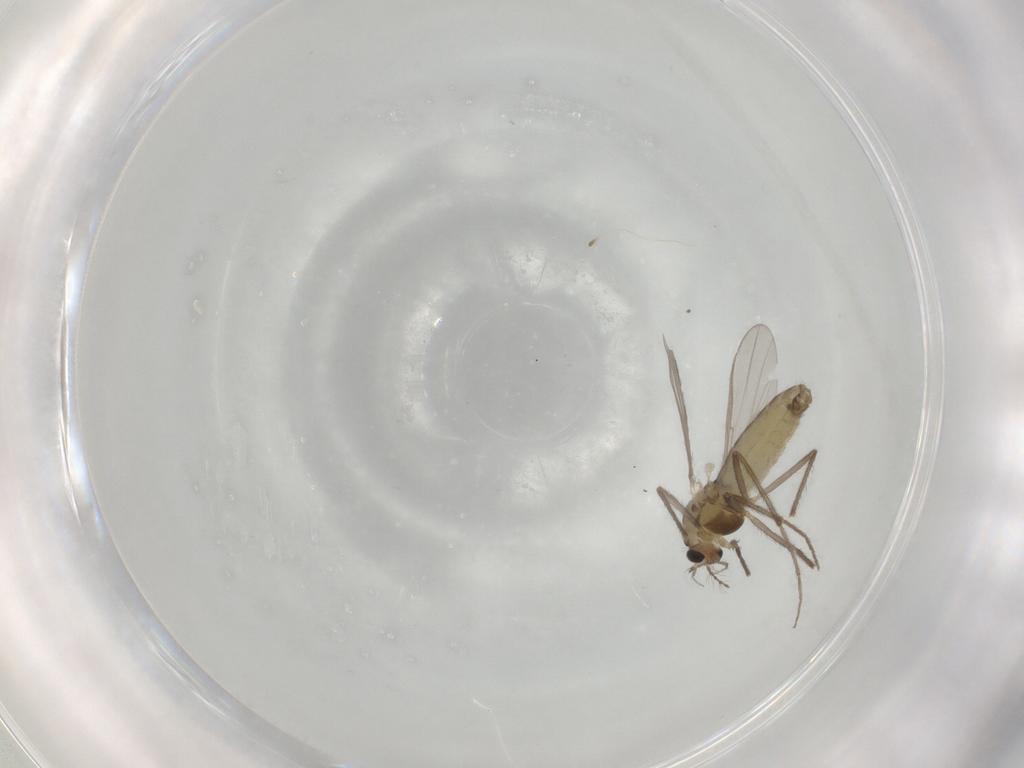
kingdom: Animalia
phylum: Arthropoda
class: Insecta
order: Diptera
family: Chironomidae
